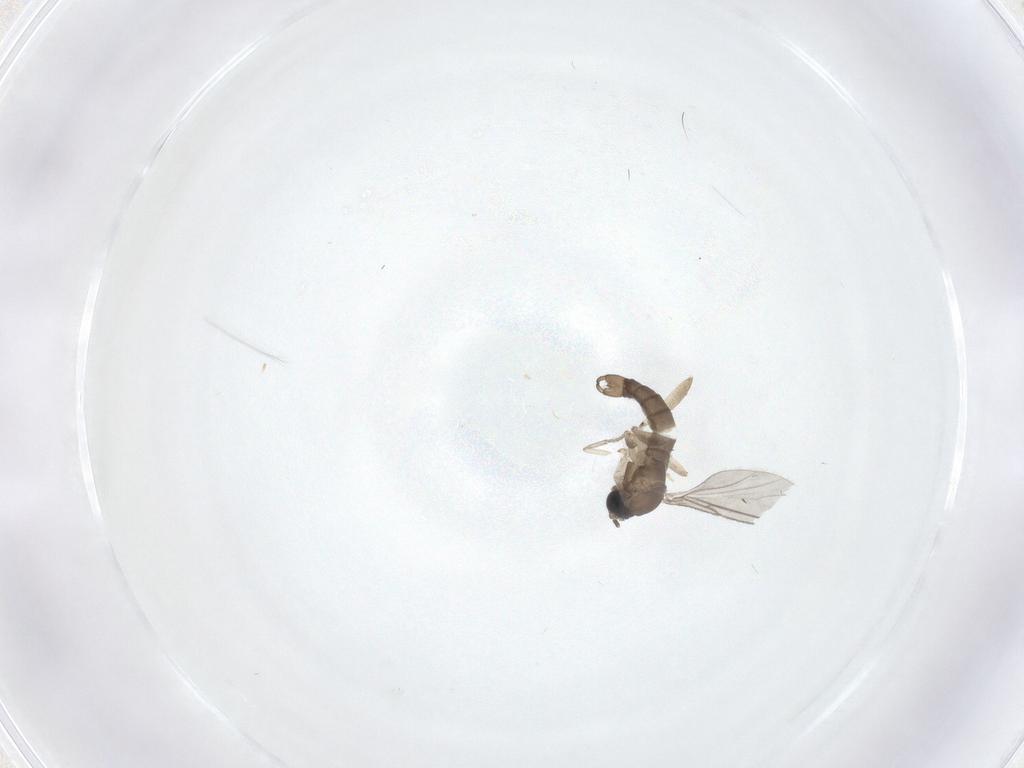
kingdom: Animalia
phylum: Arthropoda
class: Insecta
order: Diptera
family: Sciaridae
